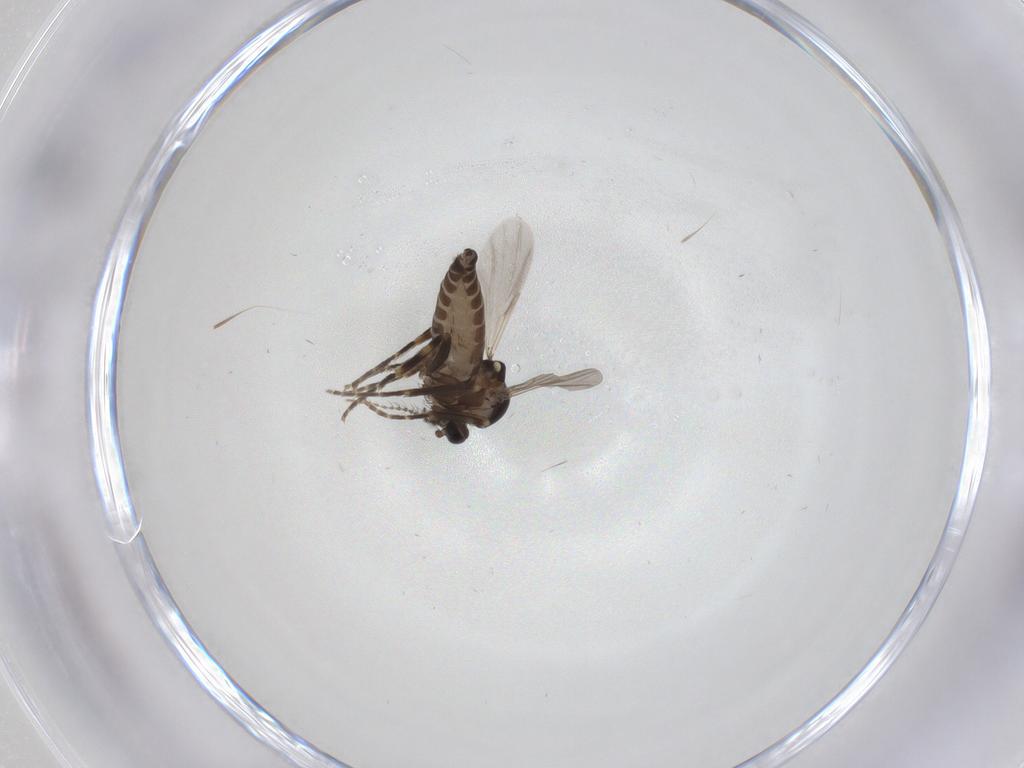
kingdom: Animalia
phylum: Arthropoda
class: Insecta
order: Diptera
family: Ceratopogonidae
